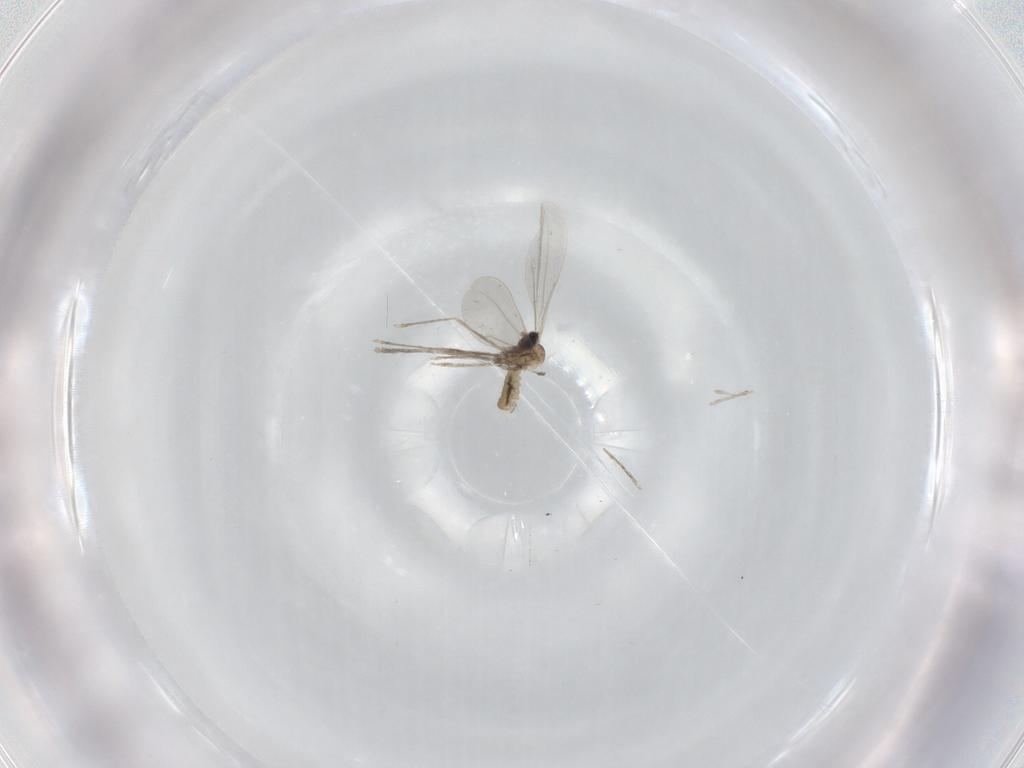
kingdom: Animalia
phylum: Arthropoda
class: Insecta
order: Diptera
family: Cecidomyiidae
